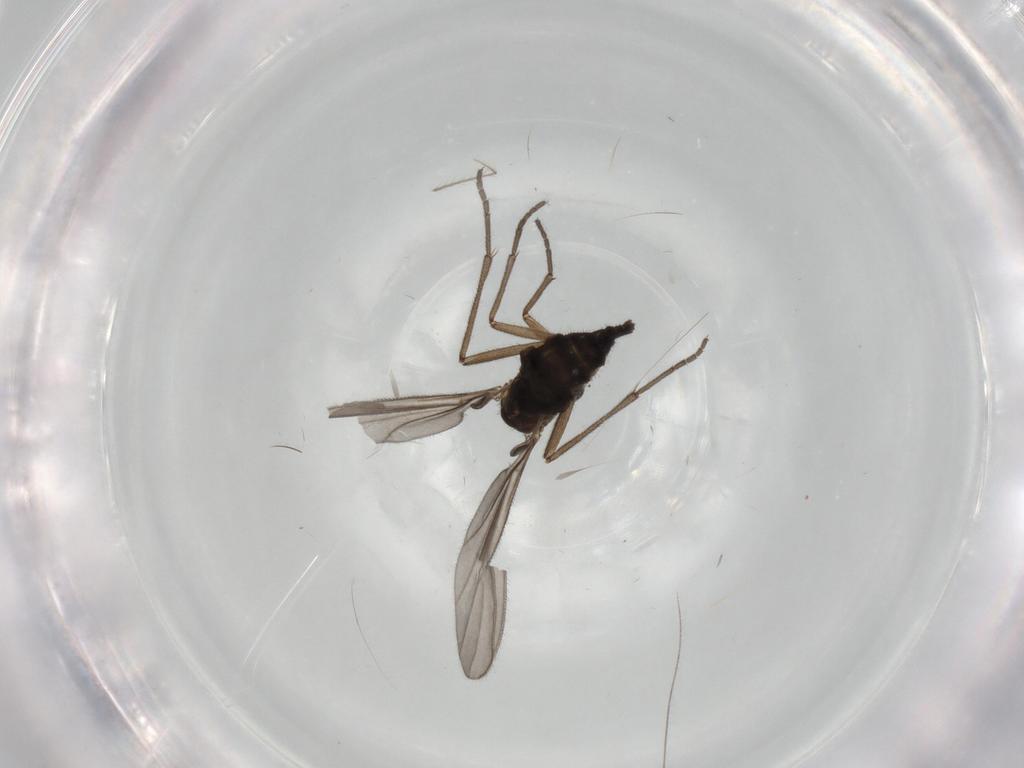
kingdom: Animalia
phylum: Arthropoda
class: Insecta
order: Diptera
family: Sciaridae
